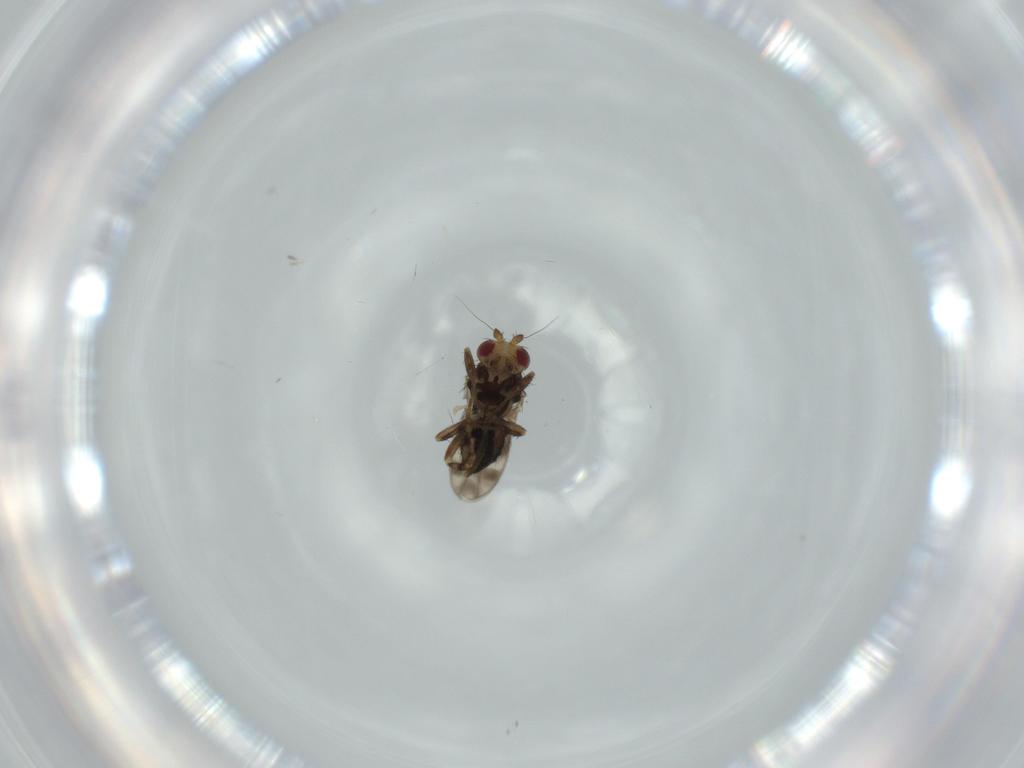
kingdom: Animalia
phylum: Arthropoda
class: Insecta
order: Diptera
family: Sphaeroceridae
